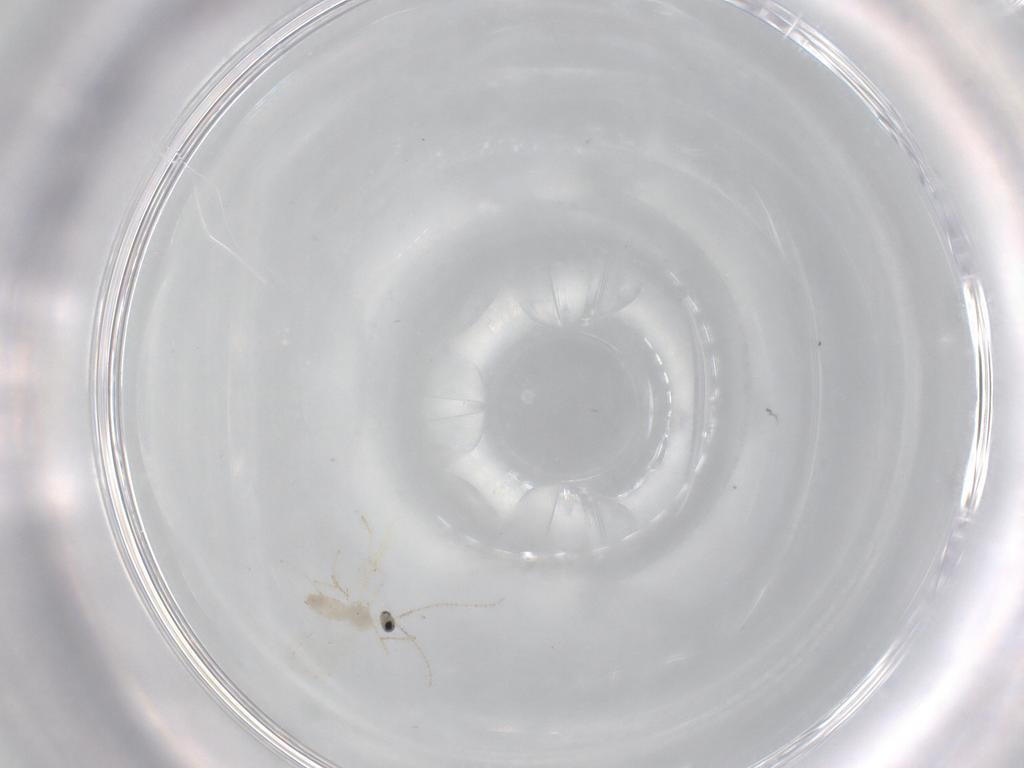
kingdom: Animalia
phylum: Arthropoda
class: Insecta
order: Diptera
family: Cecidomyiidae
